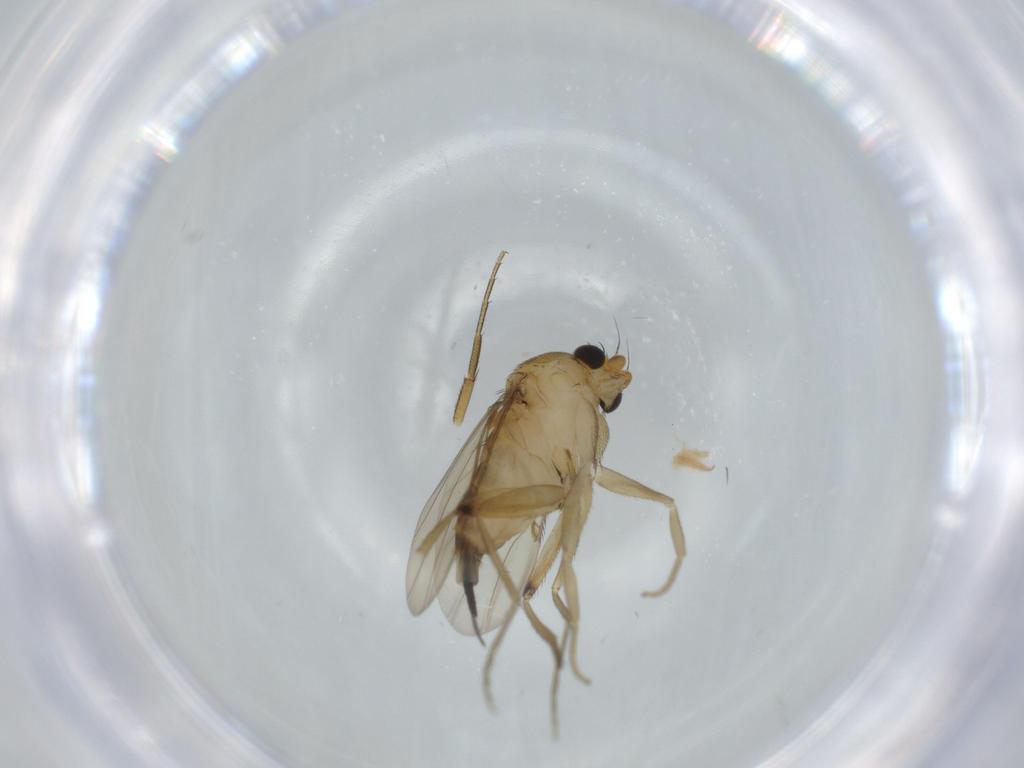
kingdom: Animalia
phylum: Arthropoda
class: Insecta
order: Diptera
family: Phoridae
